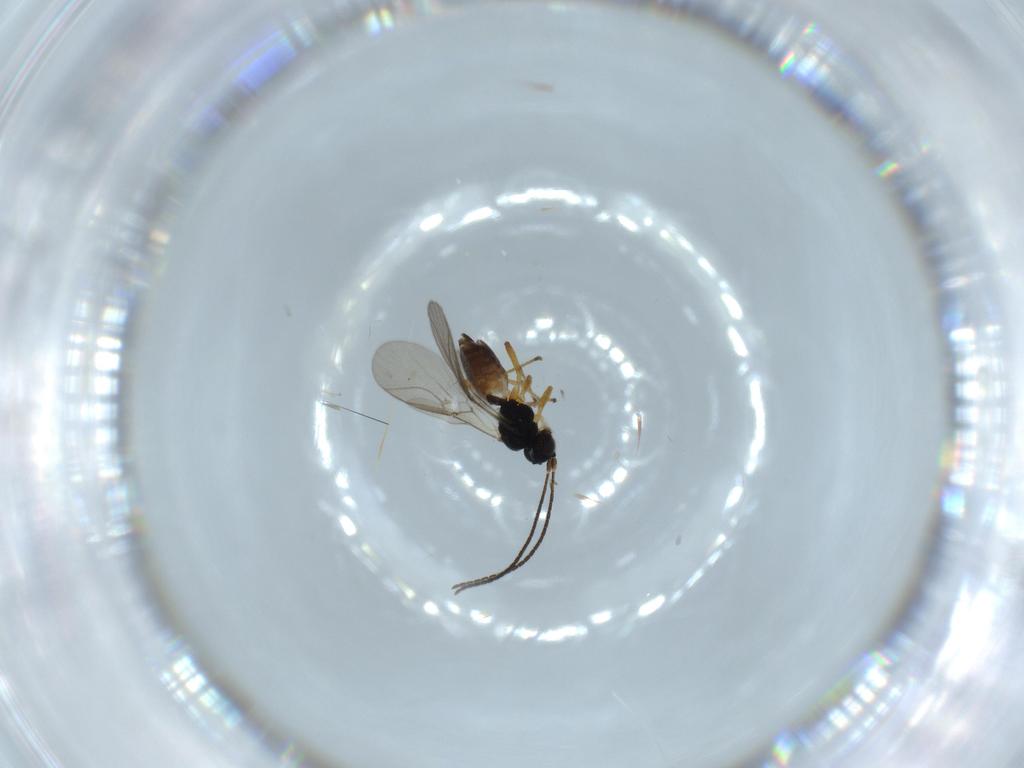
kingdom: Animalia
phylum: Arthropoda
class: Insecta
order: Hymenoptera
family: Braconidae
